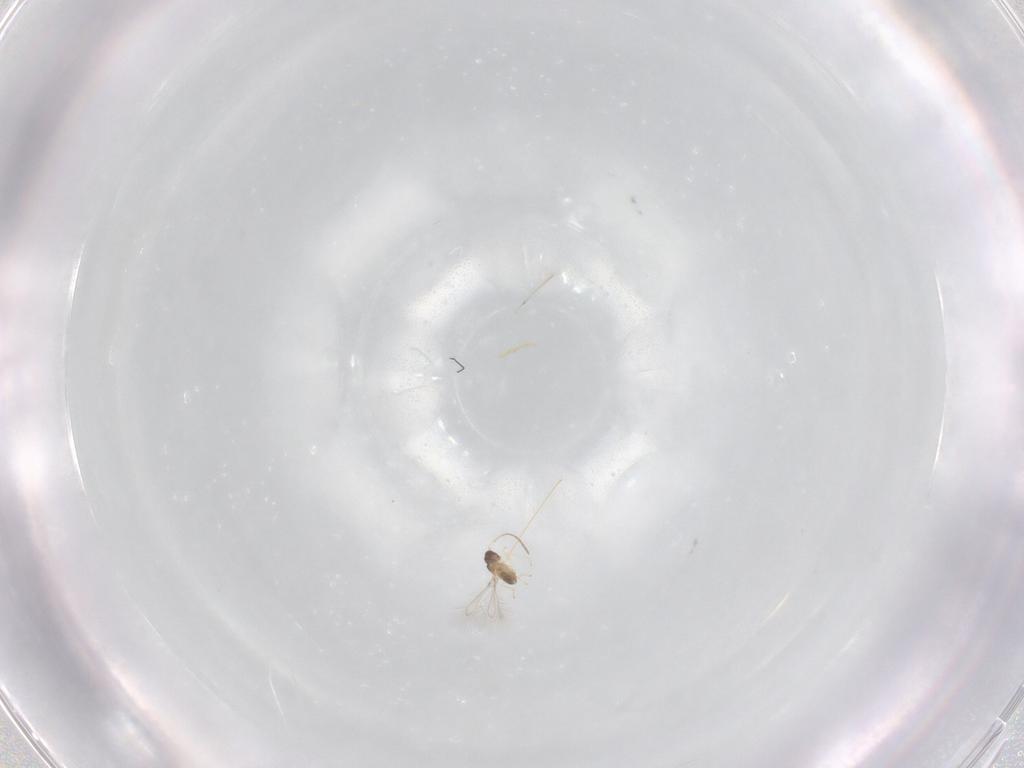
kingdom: Animalia
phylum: Arthropoda
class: Insecta
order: Hymenoptera
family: Mymaridae
